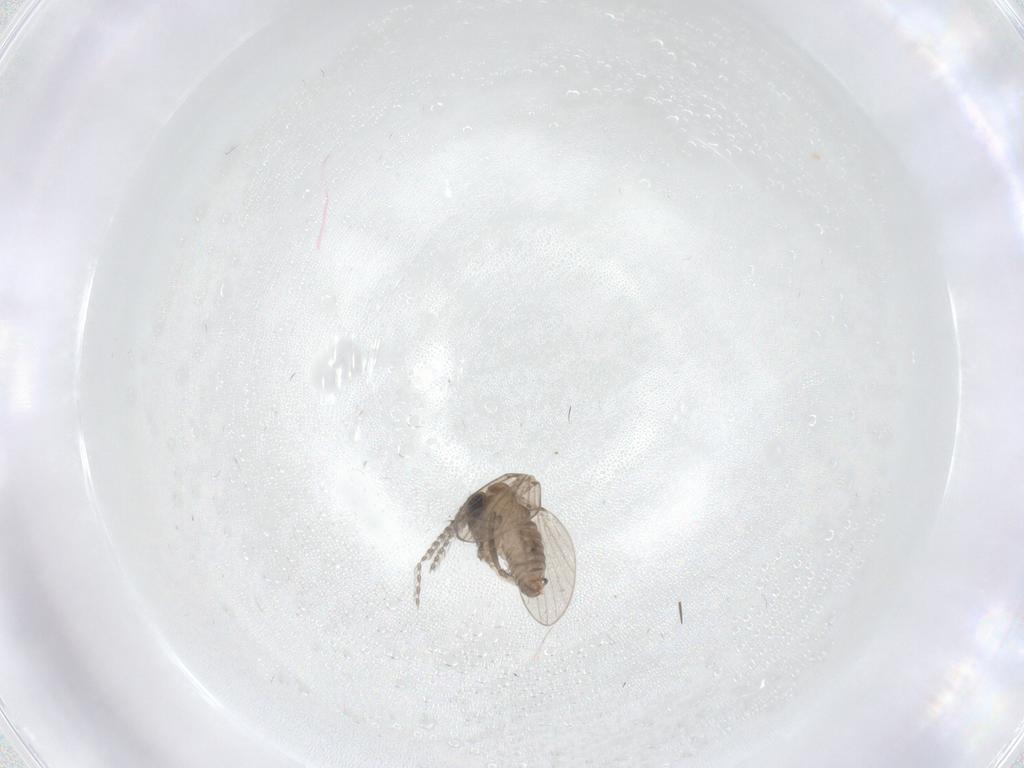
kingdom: Animalia
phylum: Arthropoda
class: Insecta
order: Diptera
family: Psychodidae
